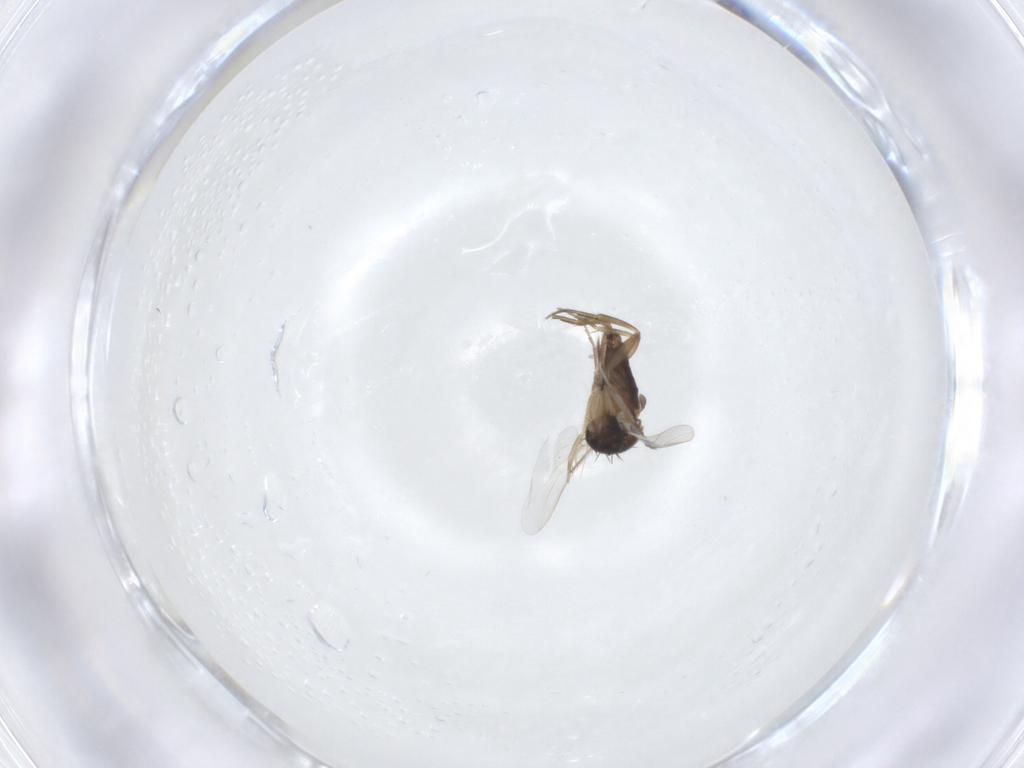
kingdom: Animalia
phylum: Arthropoda
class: Insecta
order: Diptera
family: Phoridae
